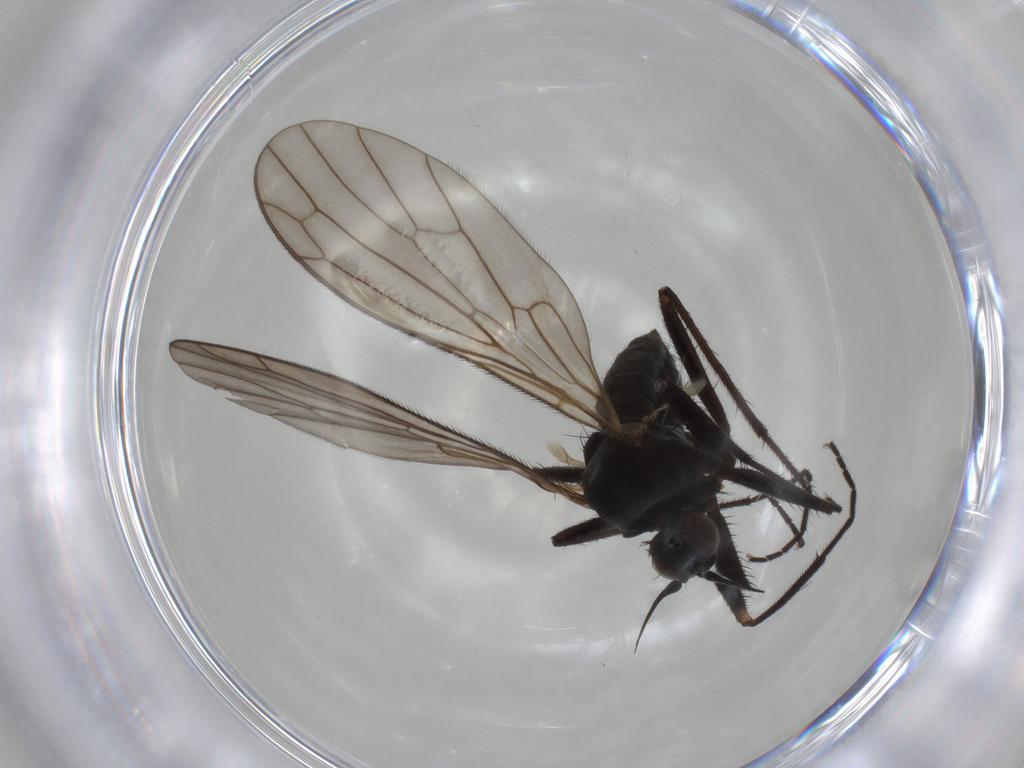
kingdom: Animalia
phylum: Arthropoda
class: Insecta
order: Diptera
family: Empididae
